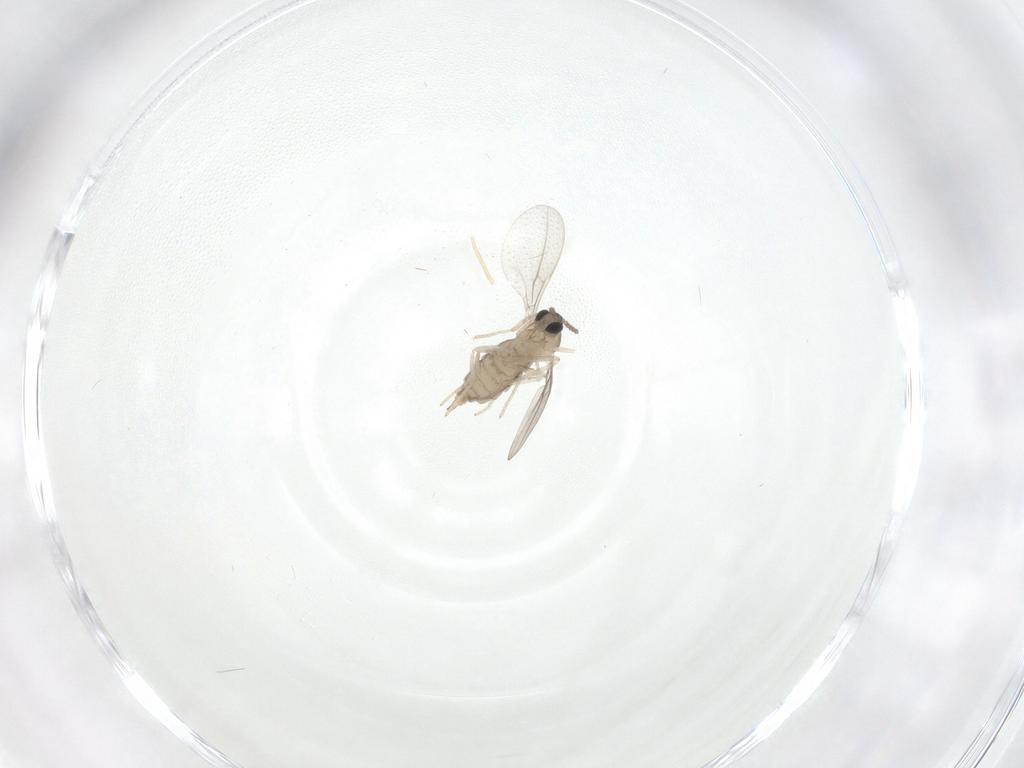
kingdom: Animalia
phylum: Arthropoda
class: Insecta
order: Diptera
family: Cecidomyiidae
